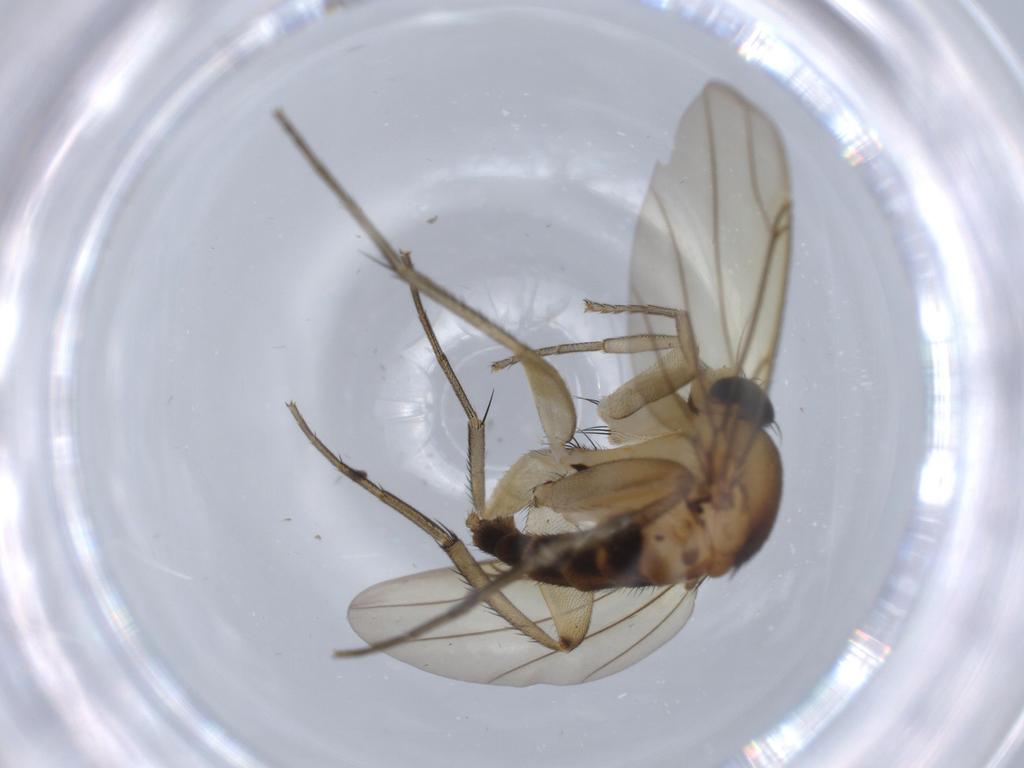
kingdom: Animalia
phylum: Arthropoda
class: Insecta
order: Diptera
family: Phoridae
